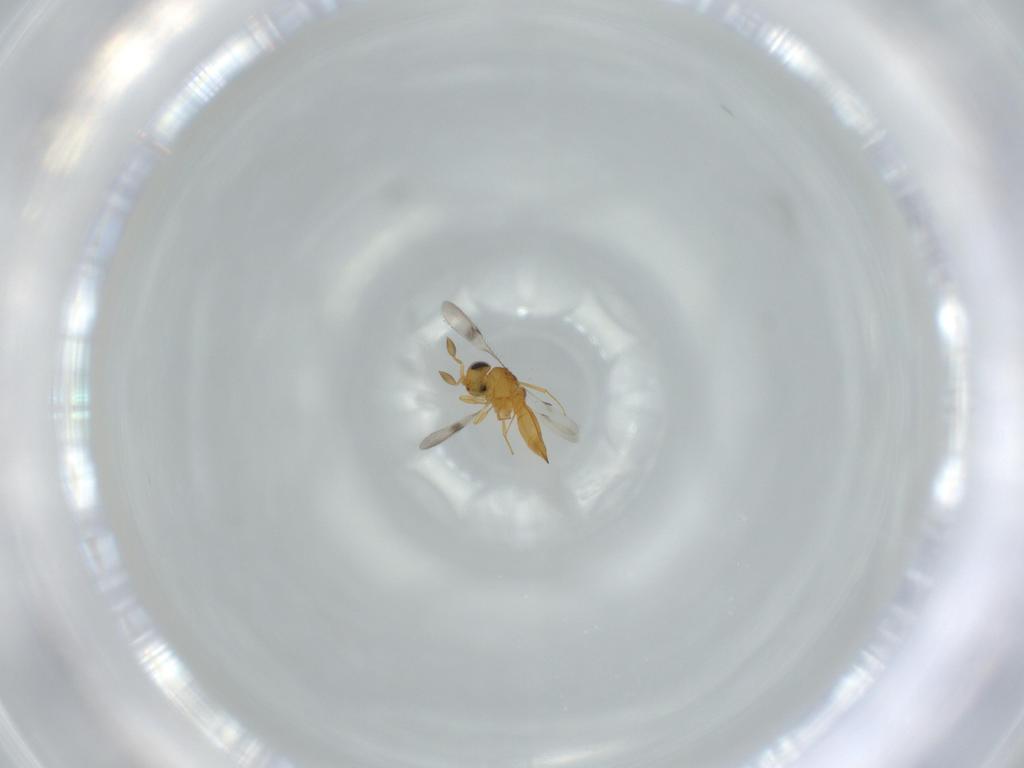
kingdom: Animalia
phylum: Arthropoda
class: Insecta
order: Hymenoptera
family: Scelionidae
